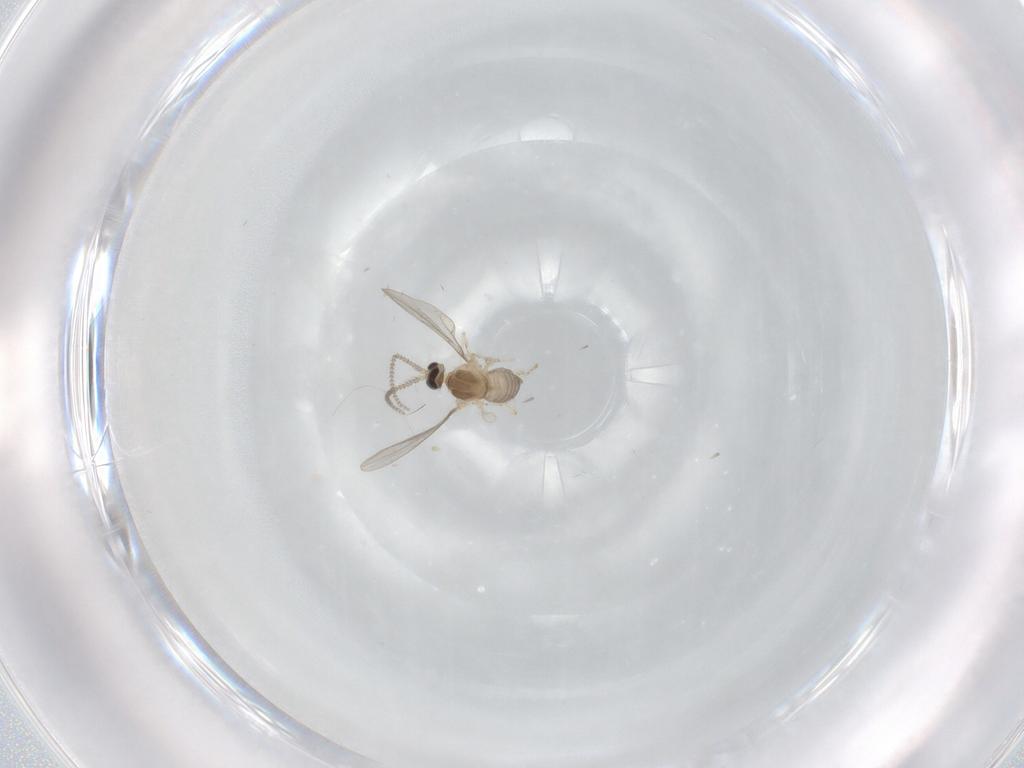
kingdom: Animalia
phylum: Arthropoda
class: Insecta
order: Diptera
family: Cecidomyiidae
